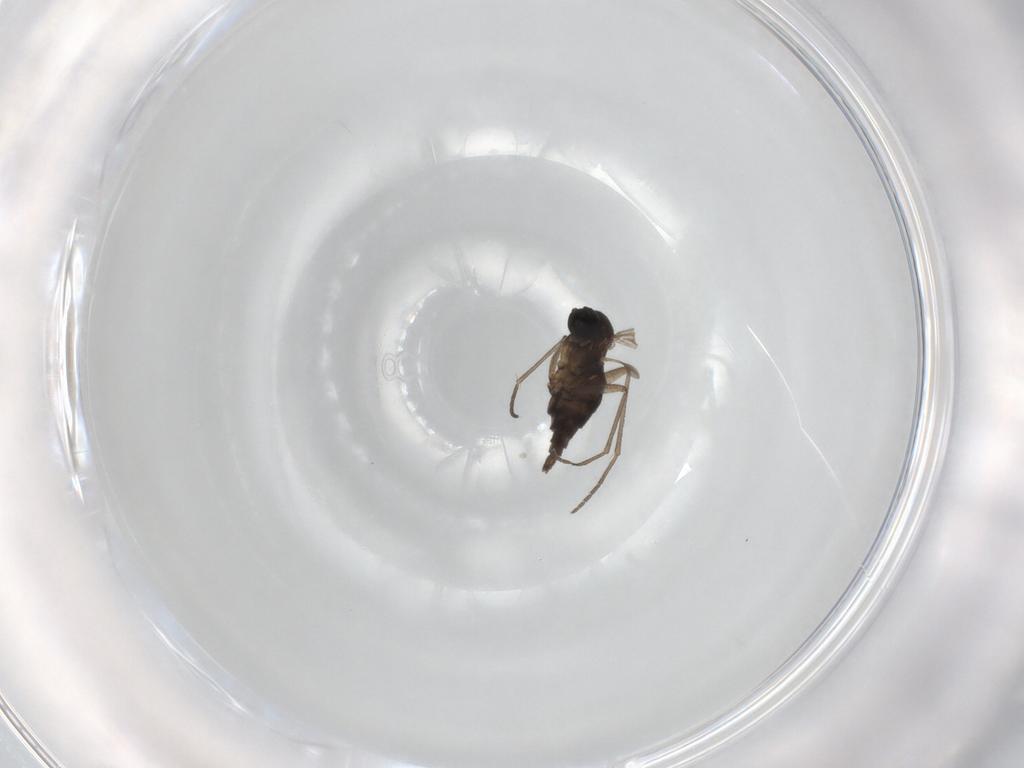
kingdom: Animalia
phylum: Arthropoda
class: Insecta
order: Diptera
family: Sciaridae
